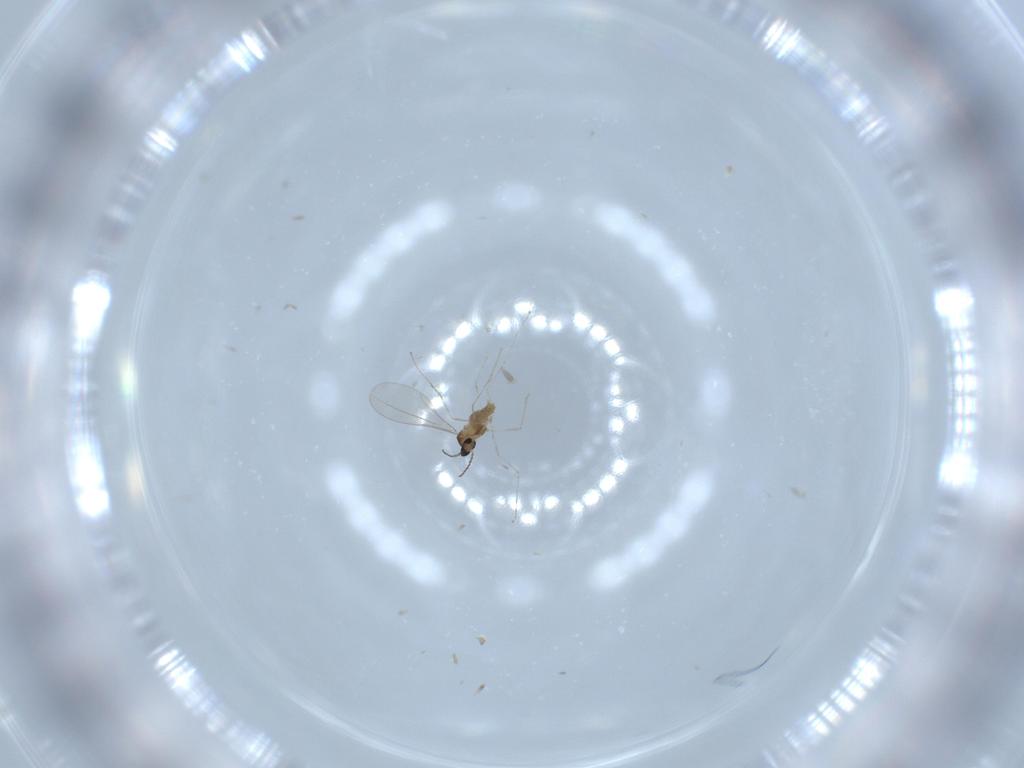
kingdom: Animalia
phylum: Arthropoda
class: Insecta
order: Diptera
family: Cecidomyiidae
